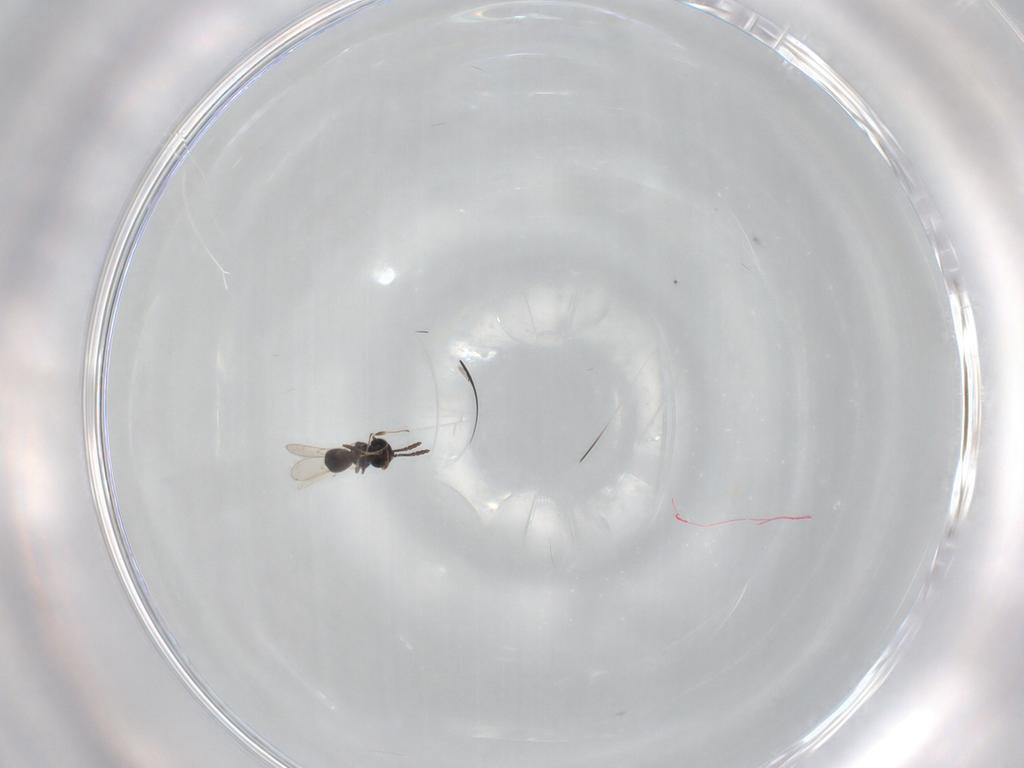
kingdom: Animalia
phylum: Arthropoda
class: Insecta
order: Hymenoptera
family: Scelionidae
